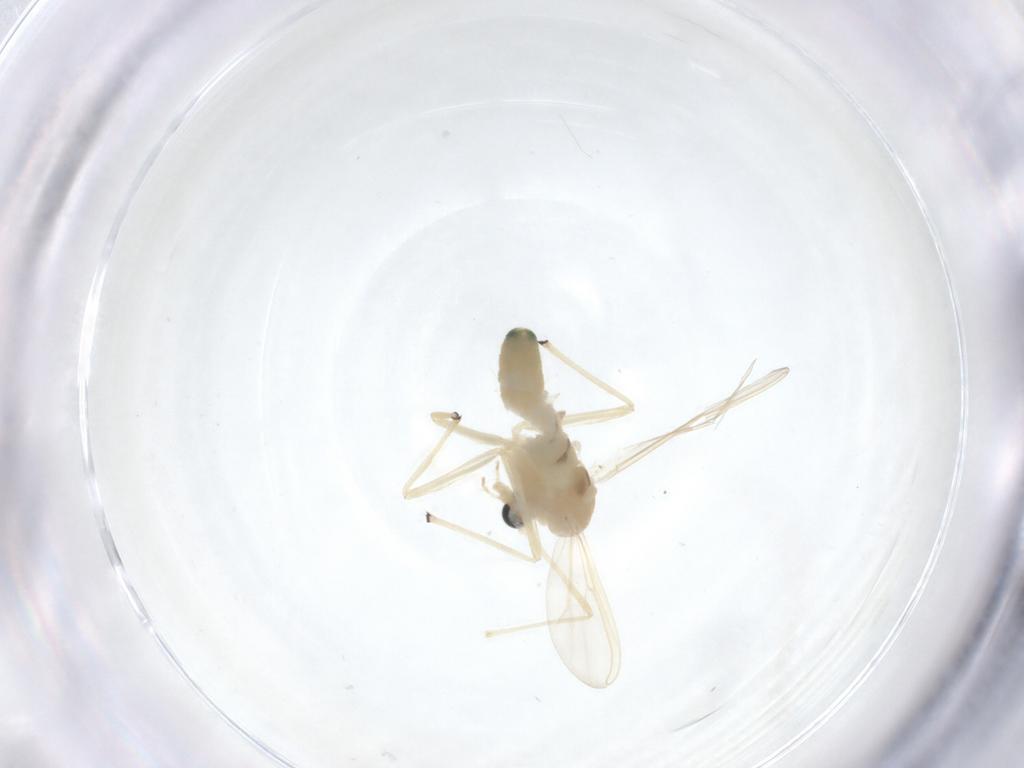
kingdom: Animalia
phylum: Arthropoda
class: Insecta
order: Diptera
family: Chironomidae
